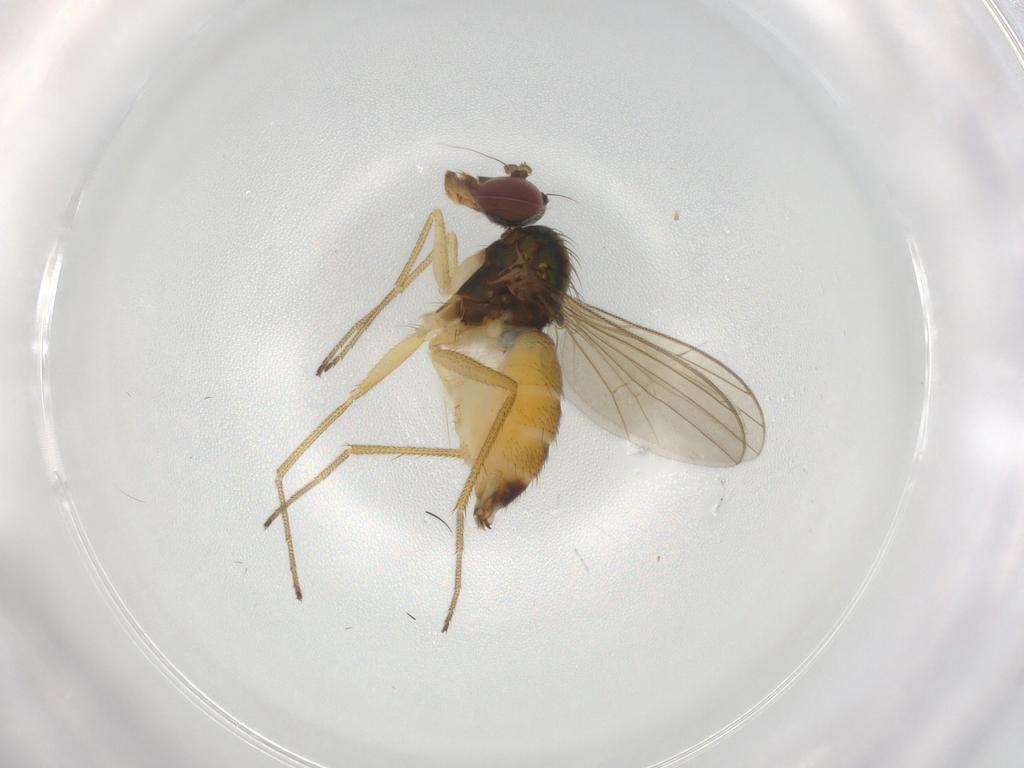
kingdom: Animalia
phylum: Arthropoda
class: Insecta
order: Diptera
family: Dolichopodidae
